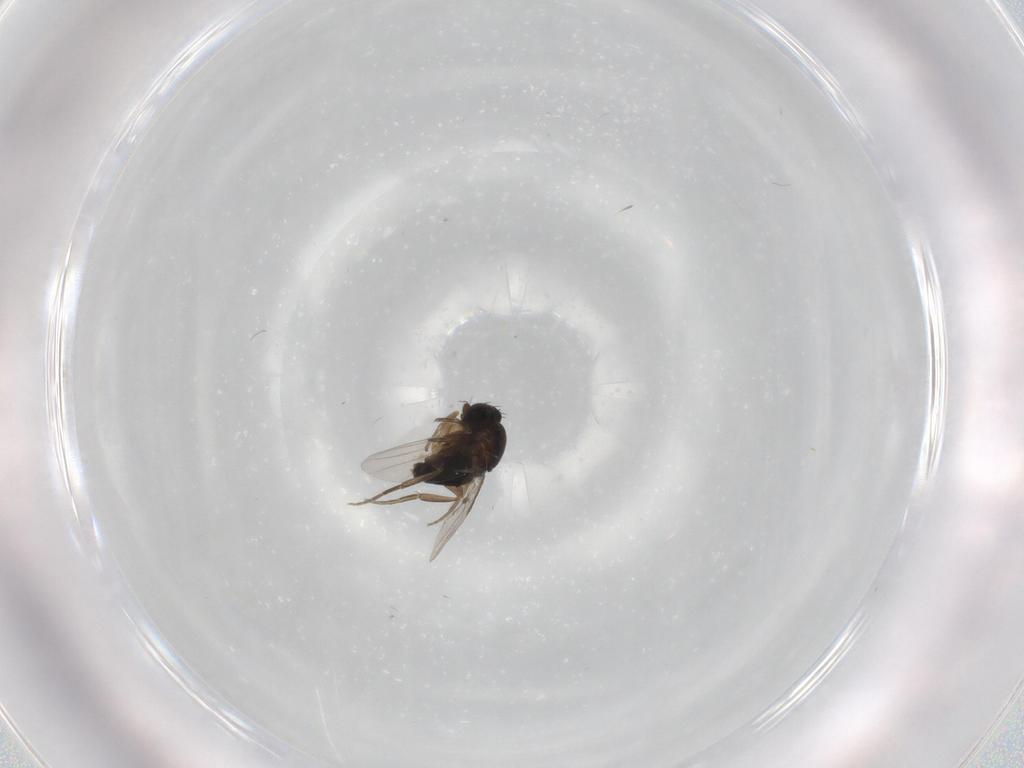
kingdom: Animalia
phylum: Arthropoda
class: Insecta
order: Diptera
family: Phoridae
